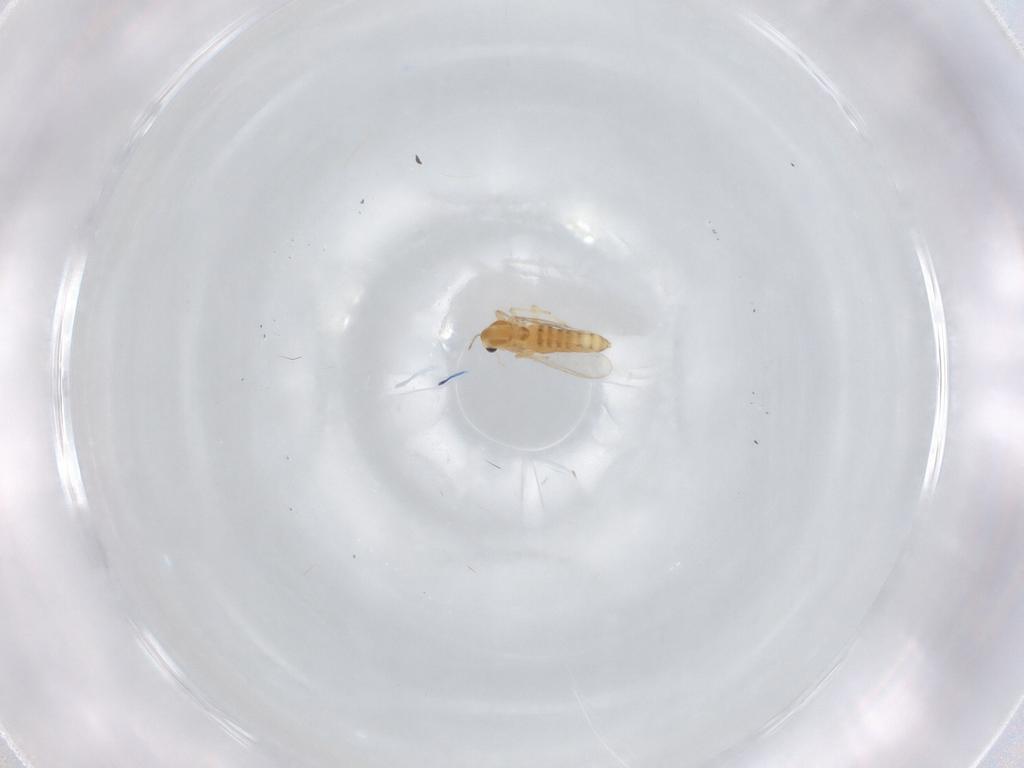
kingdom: Animalia
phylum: Arthropoda
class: Insecta
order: Diptera
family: Chironomidae
